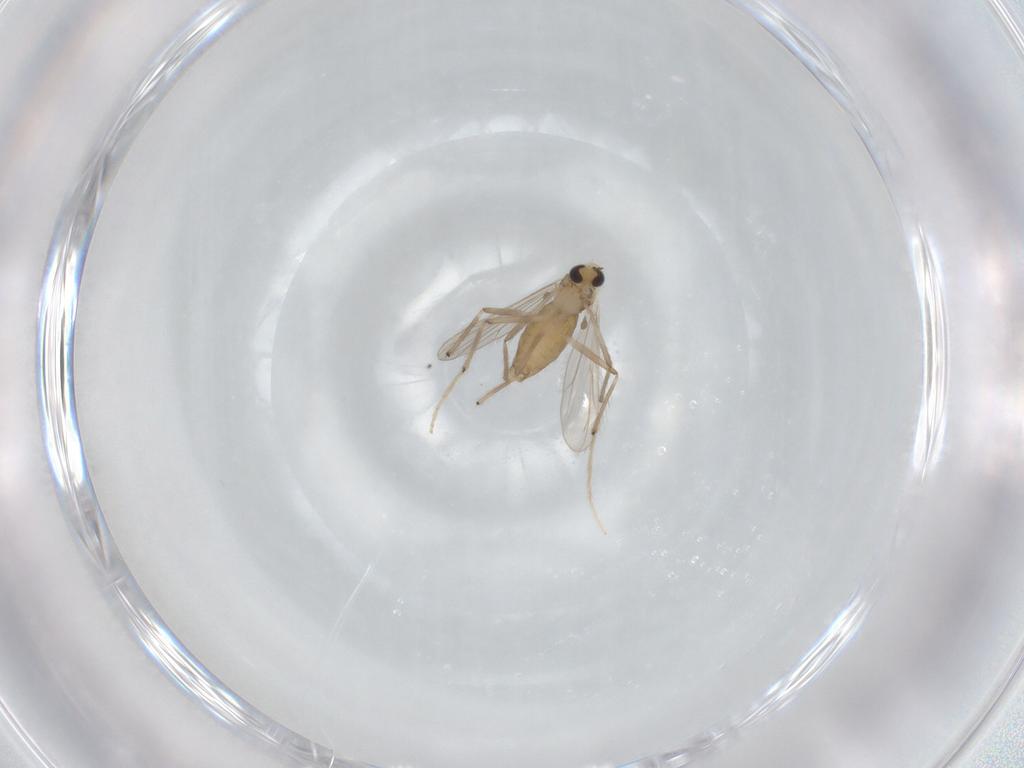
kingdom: Animalia
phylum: Arthropoda
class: Insecta
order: Diptera
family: Chironomidae
